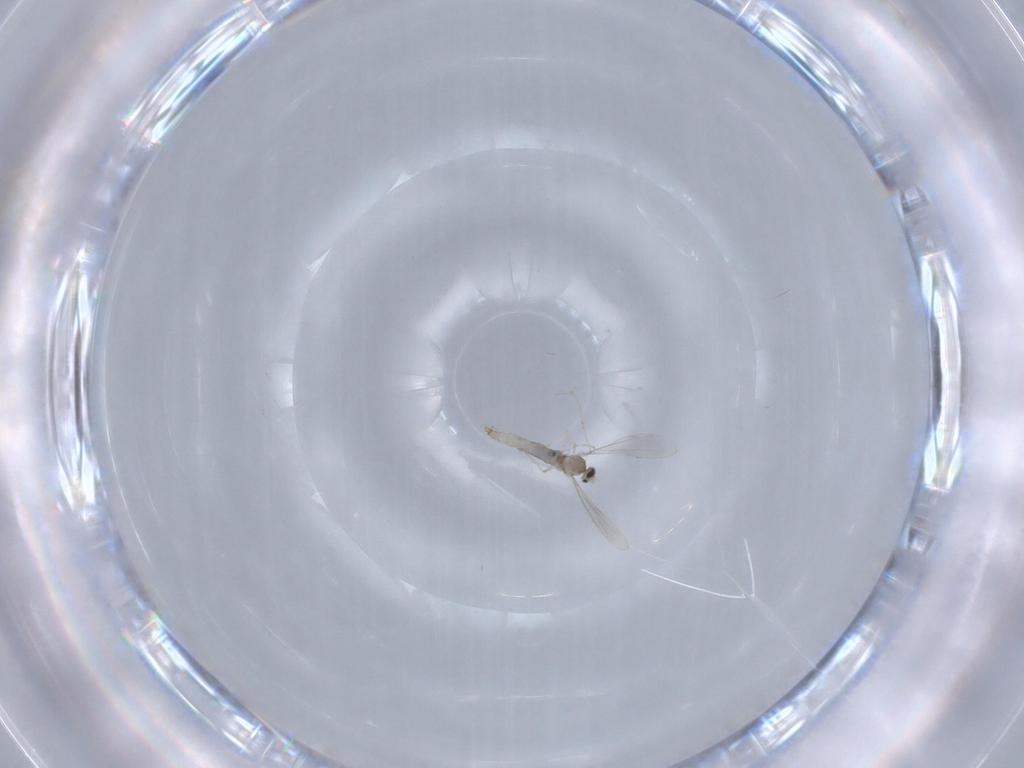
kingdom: Animalia
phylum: Arthropoda
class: Insecta
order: Diptera
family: Cecidomyiidae
